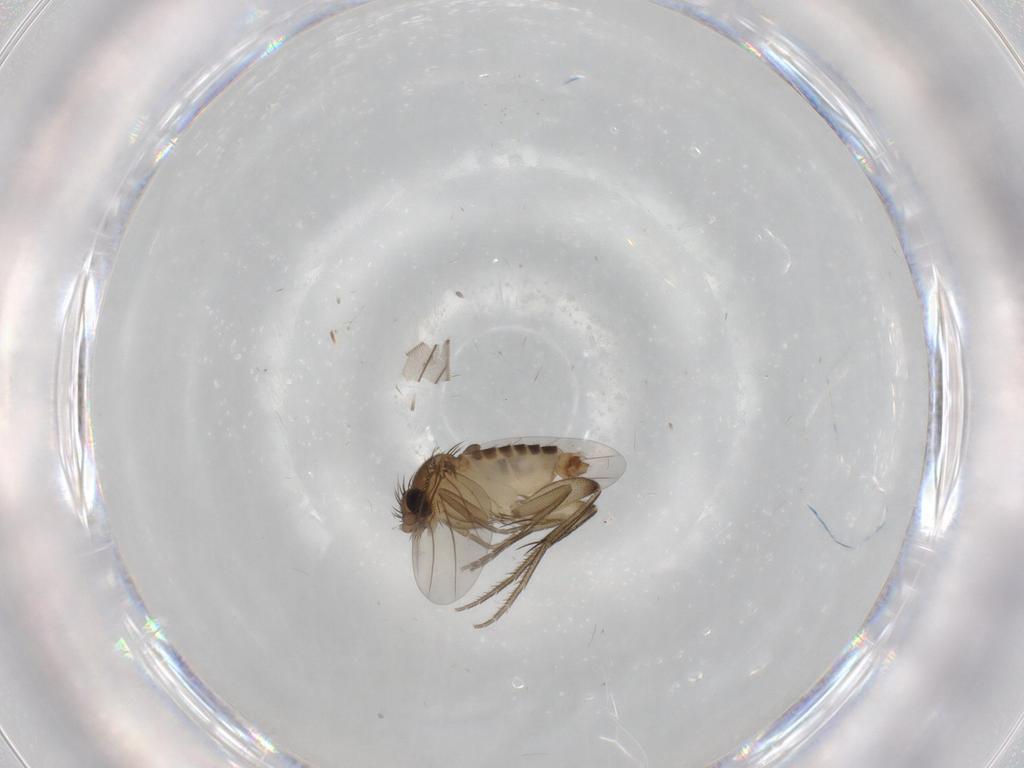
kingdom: Animalia
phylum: Arthropoda
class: Insecta
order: Diptera
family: Phoridae
